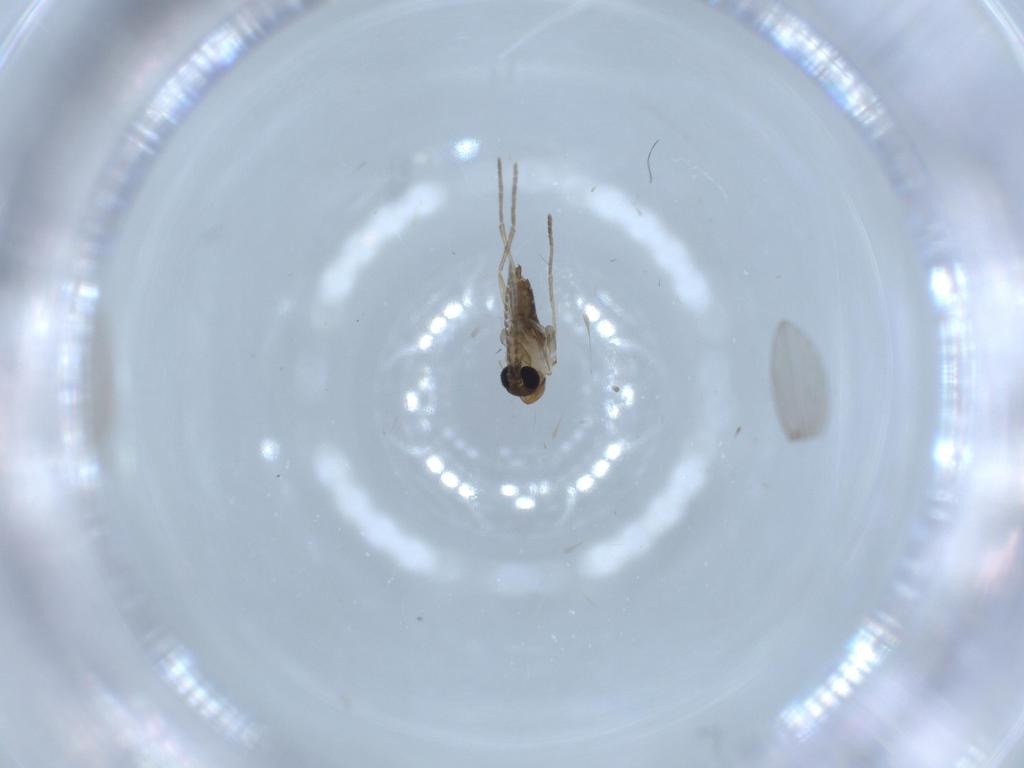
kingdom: Animalia
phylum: Arthropoda
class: Insecta
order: Diptera
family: Psychodidae
